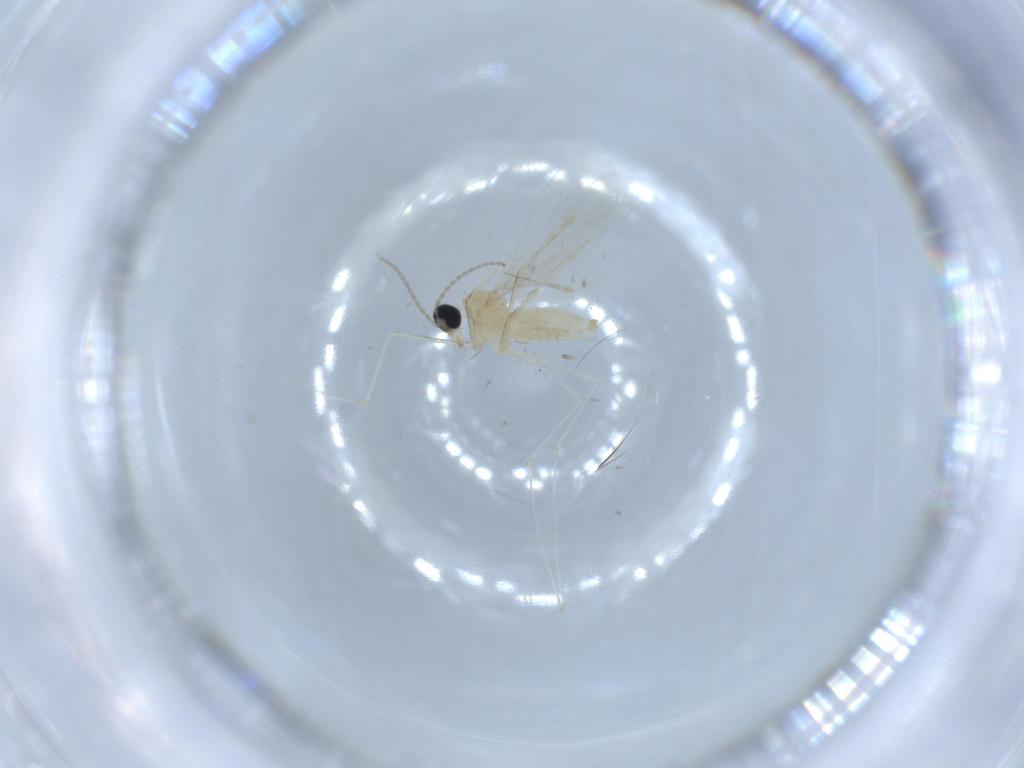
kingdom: Animalia
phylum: Arthropoda
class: Insecta
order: Diptera
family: Cecidomyiidae
